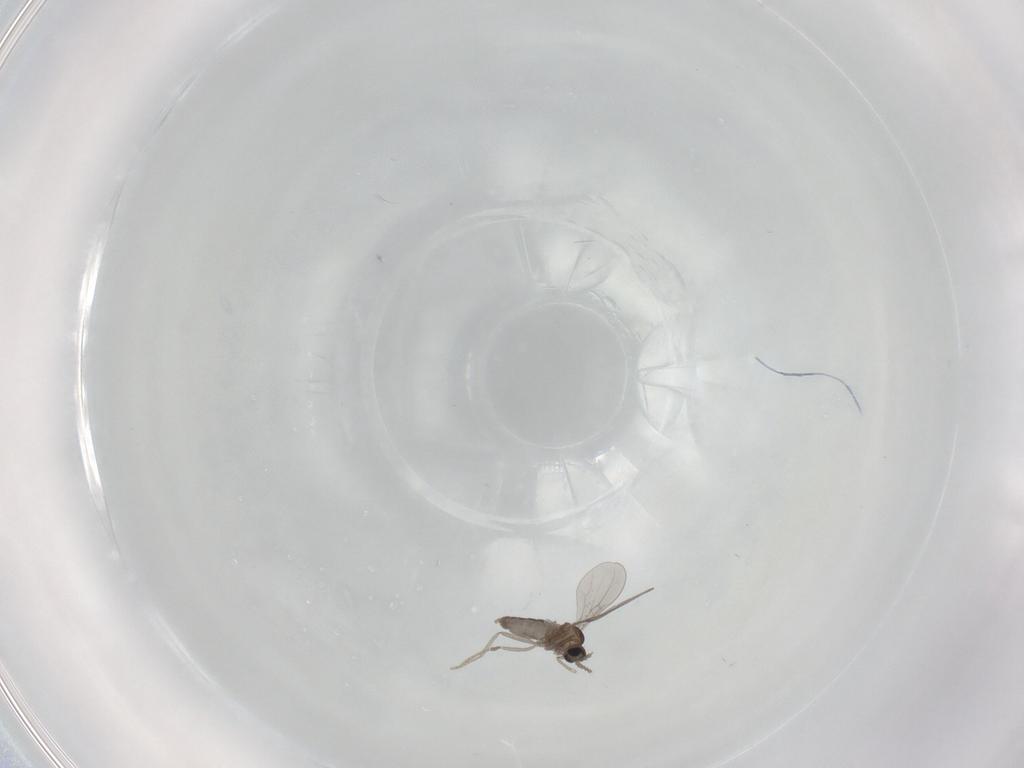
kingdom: Animalia
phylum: Arthropoda
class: Insecta
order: Diptera
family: Cecidomyiidae
